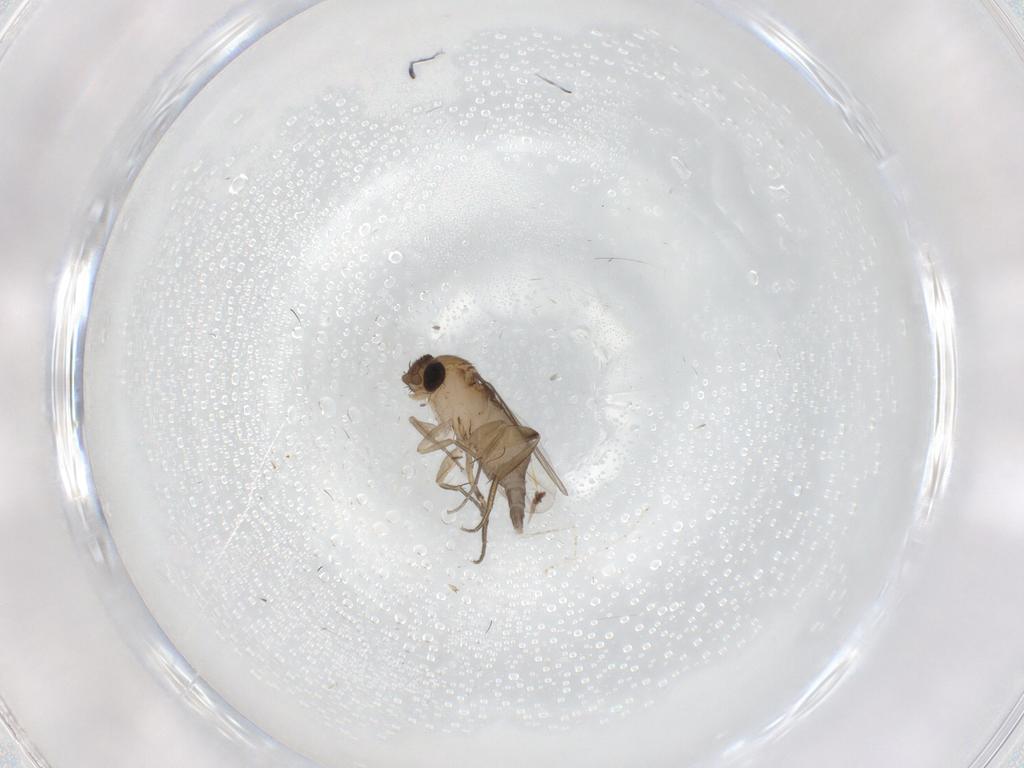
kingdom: Animalia
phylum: Arthropoda
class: Insecta
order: Diptera
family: Phoridae
